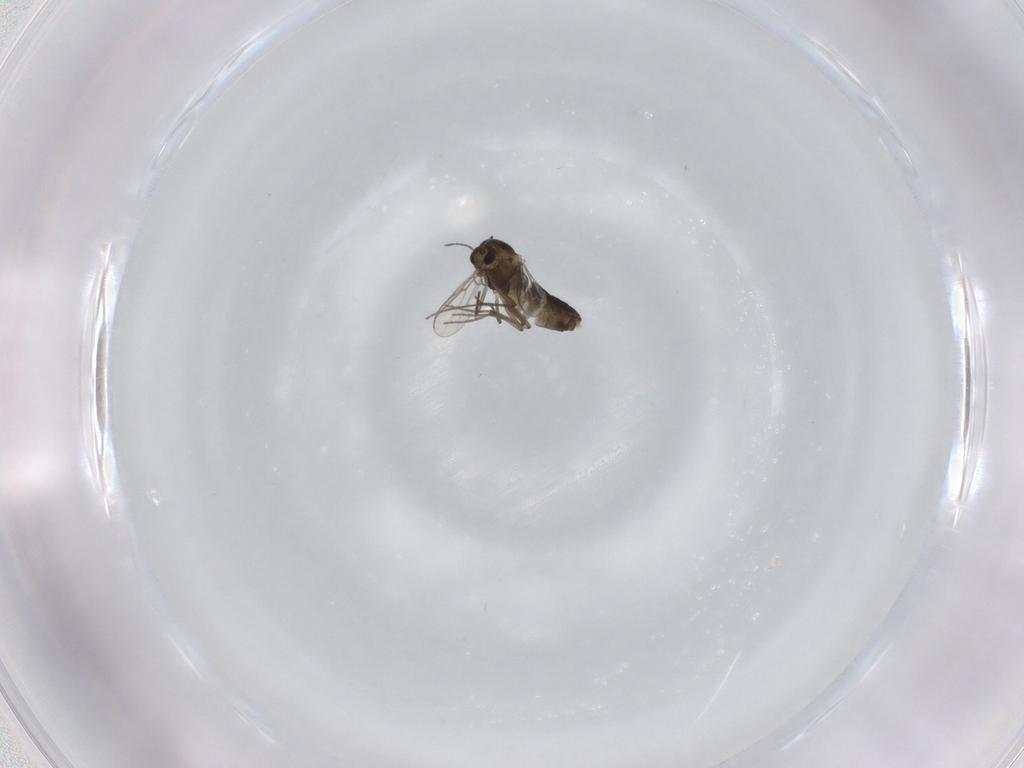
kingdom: Animalia
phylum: Arthropoda
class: Insecta
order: Diptera
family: Chironomidae
